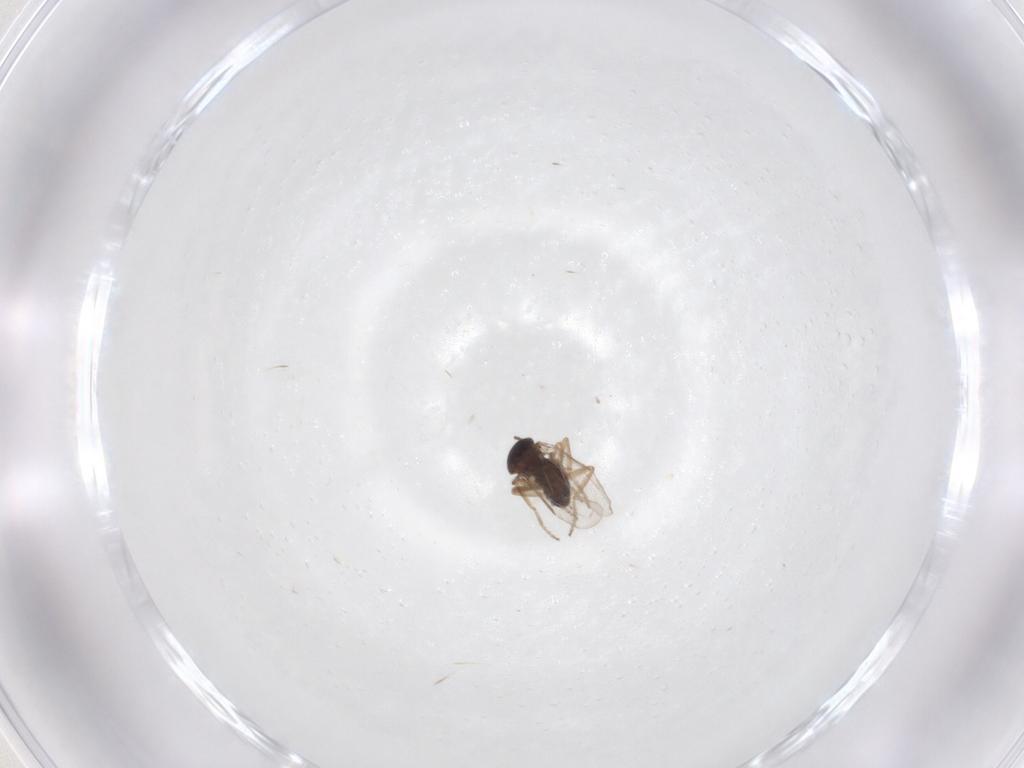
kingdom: Animalia
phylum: Arthropoda
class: Insecta
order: Diptera
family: Ceratopogonidae
